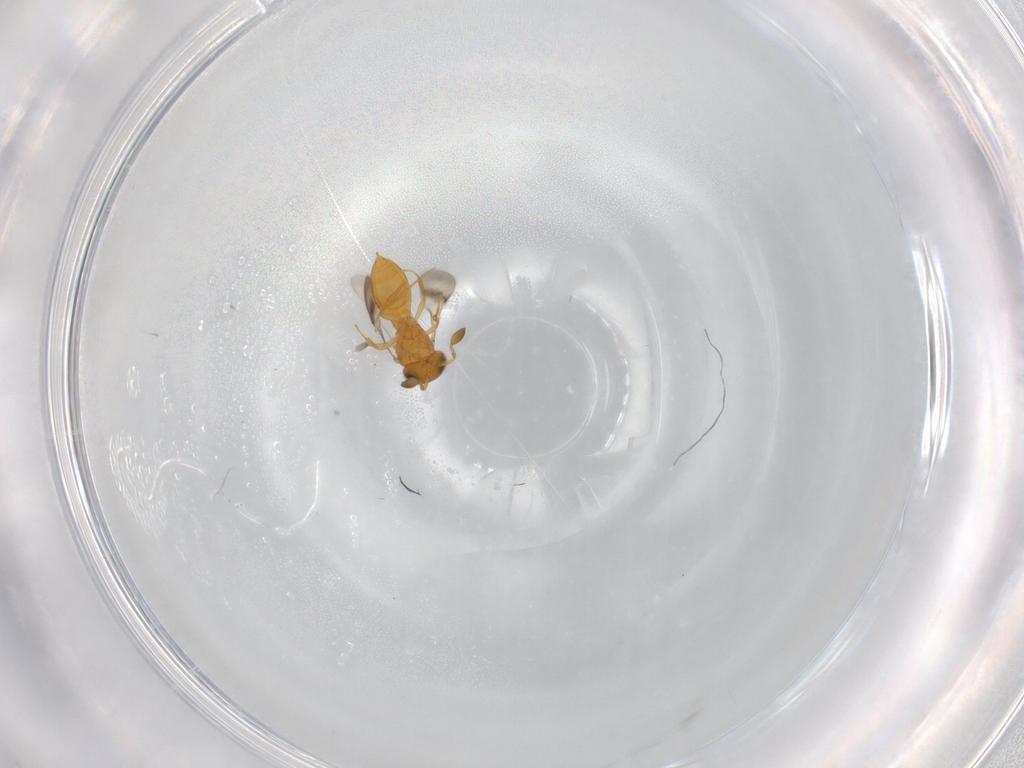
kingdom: Animalia
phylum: Arthropoda
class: Insecta
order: Hymenoptera
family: Scelionidae
